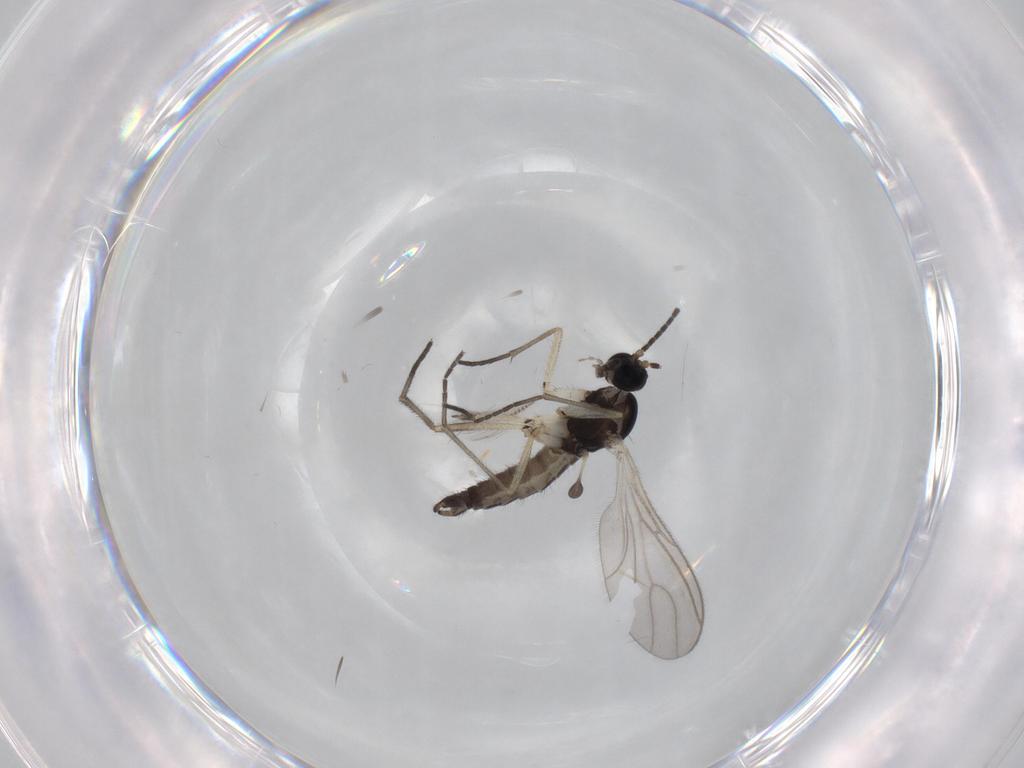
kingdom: Animalia
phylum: Arthropoda
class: Insecta
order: Diptera
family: Sciaridae
